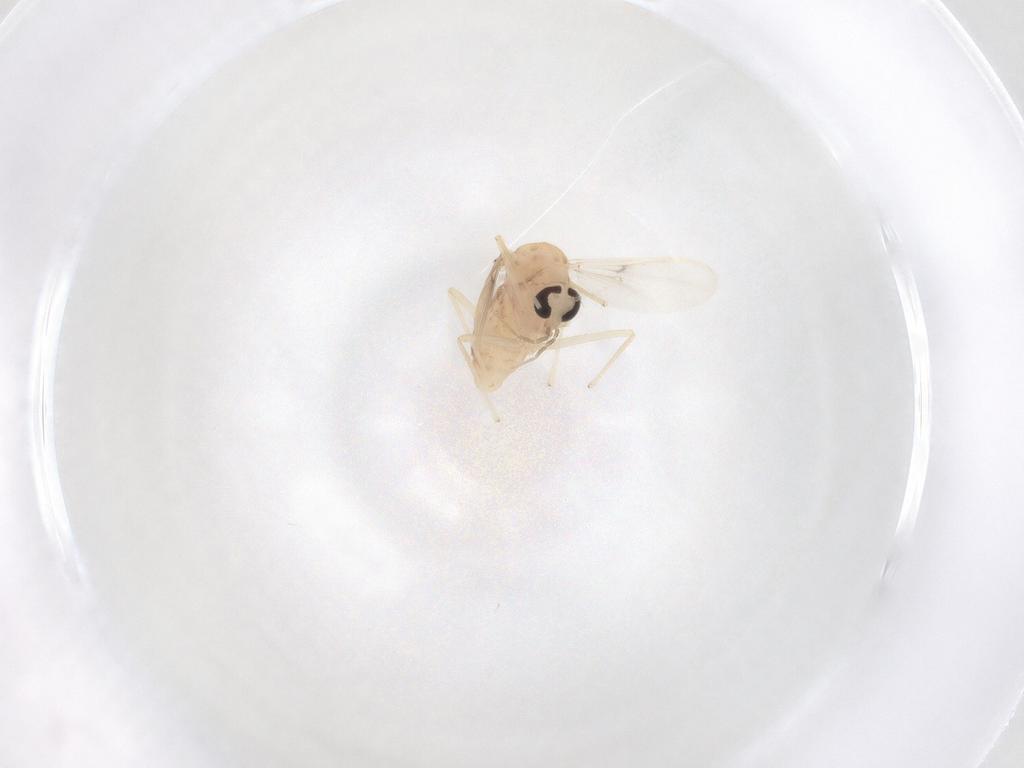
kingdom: Animalia
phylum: Arthropoda
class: Insecta
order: Diptera
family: Chironomidae
